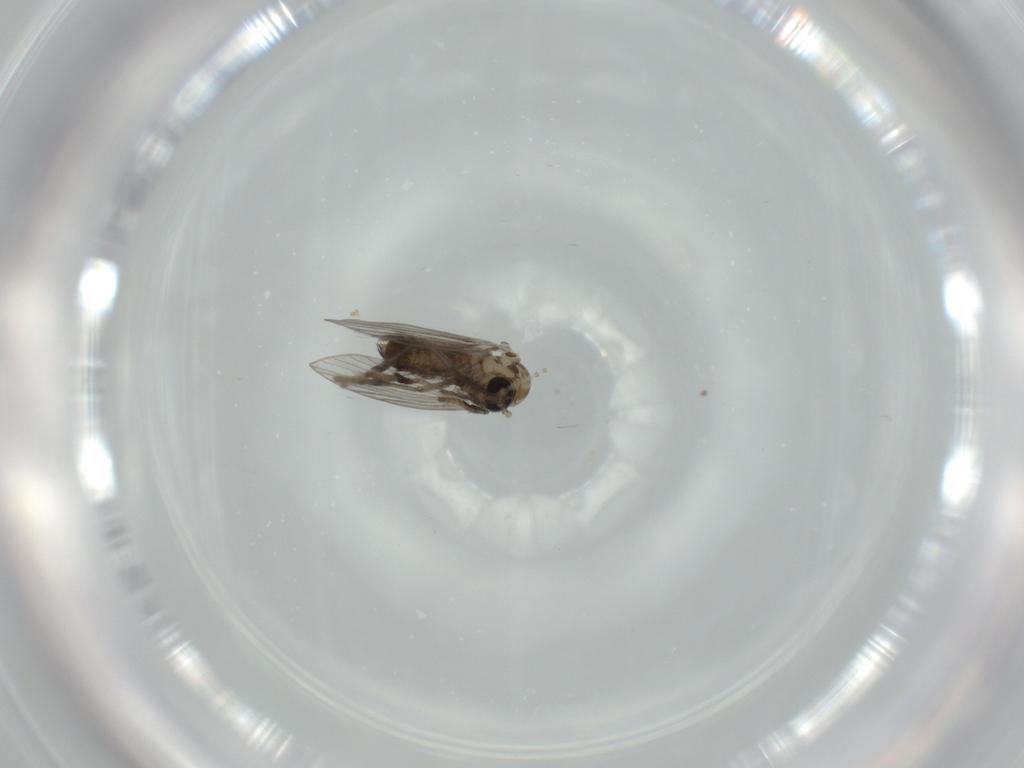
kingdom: Animalia
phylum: Arthropoda
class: Insecta
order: Diptera
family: Psychodidae
